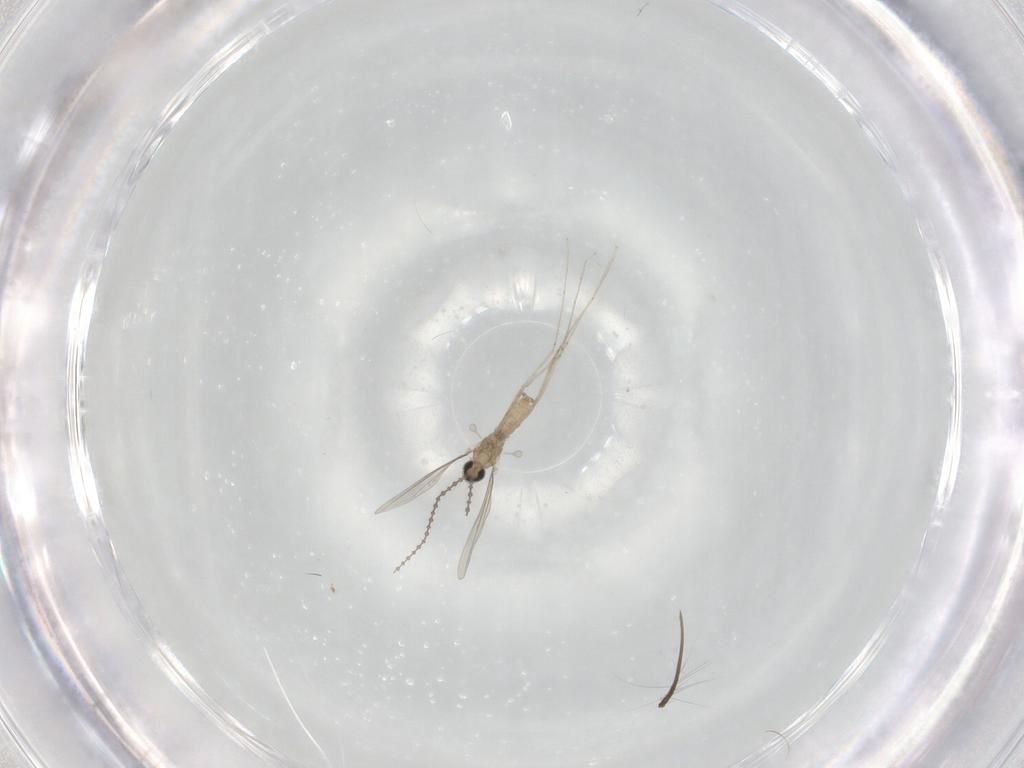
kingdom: Animalia
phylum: Arthropoda
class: Insecta
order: Diptera
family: Chironomidae
